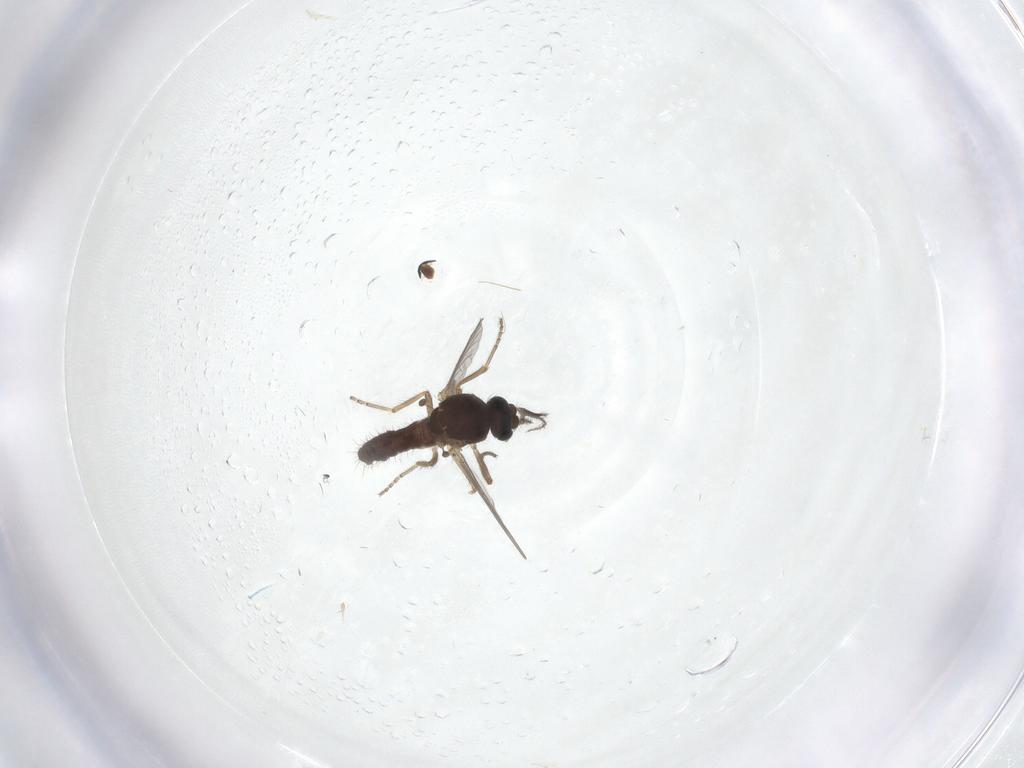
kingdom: Animalia
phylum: Arthropoda
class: Insecta
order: Diptera
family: Ceratopogonidae
